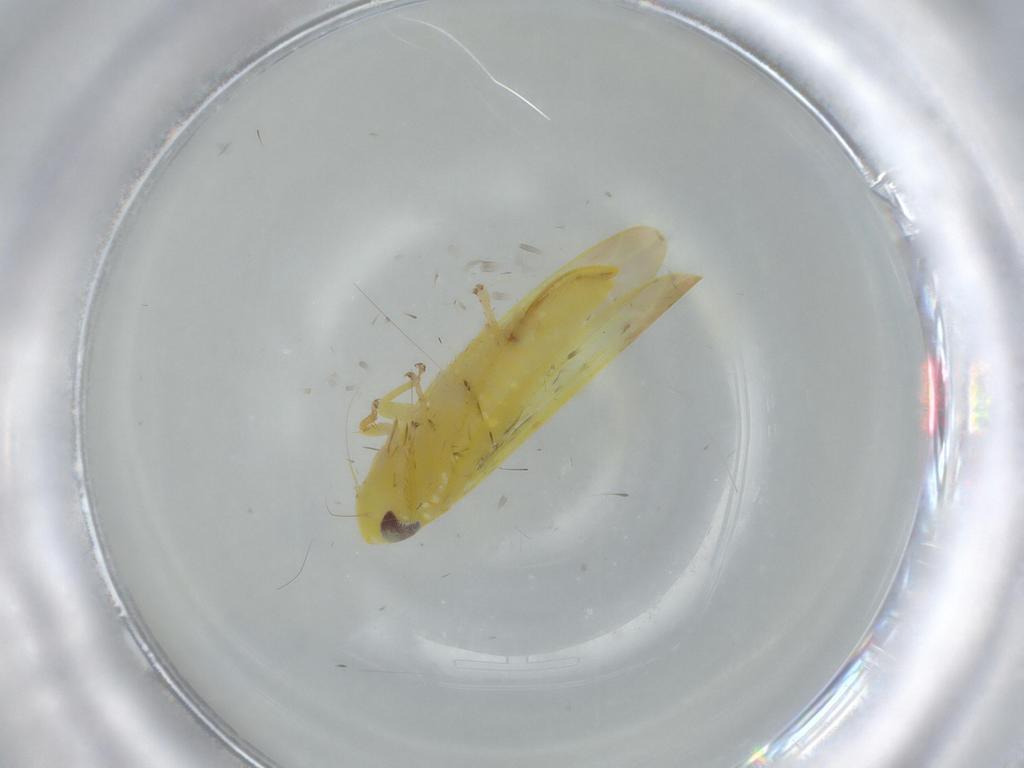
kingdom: Animalia
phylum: Arthropoda
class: Insecta
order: Hemiptera
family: Cicadellidae
